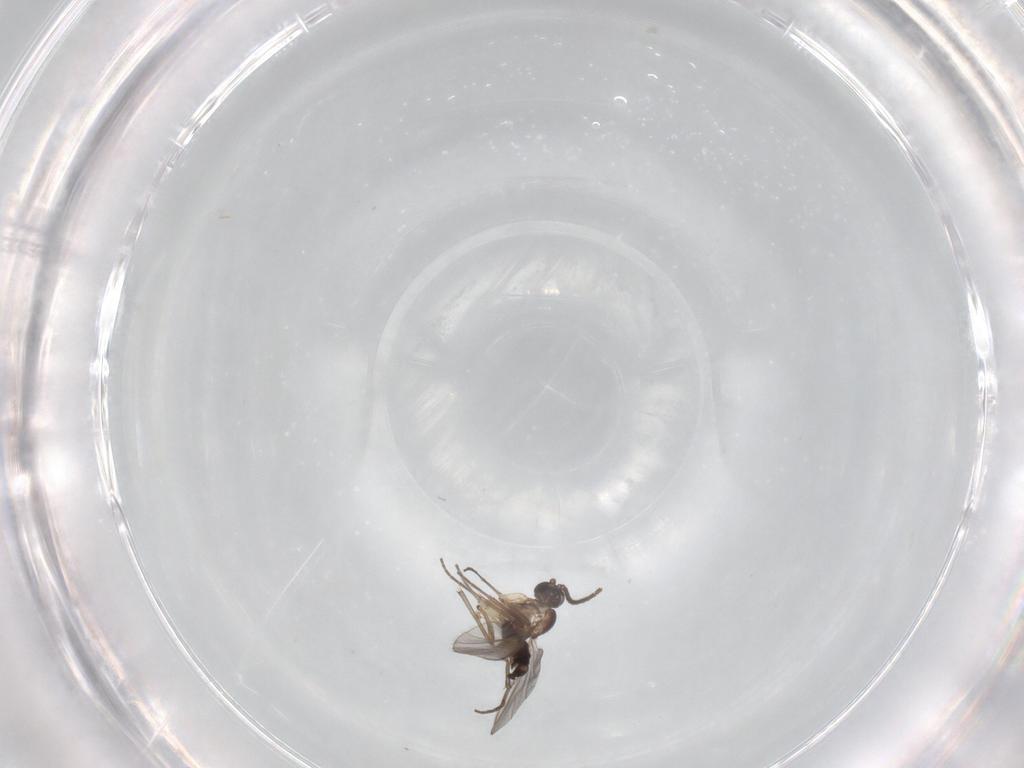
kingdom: Animalia
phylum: Arthropoda
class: Insecta
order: Diptera
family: Sciaridae
